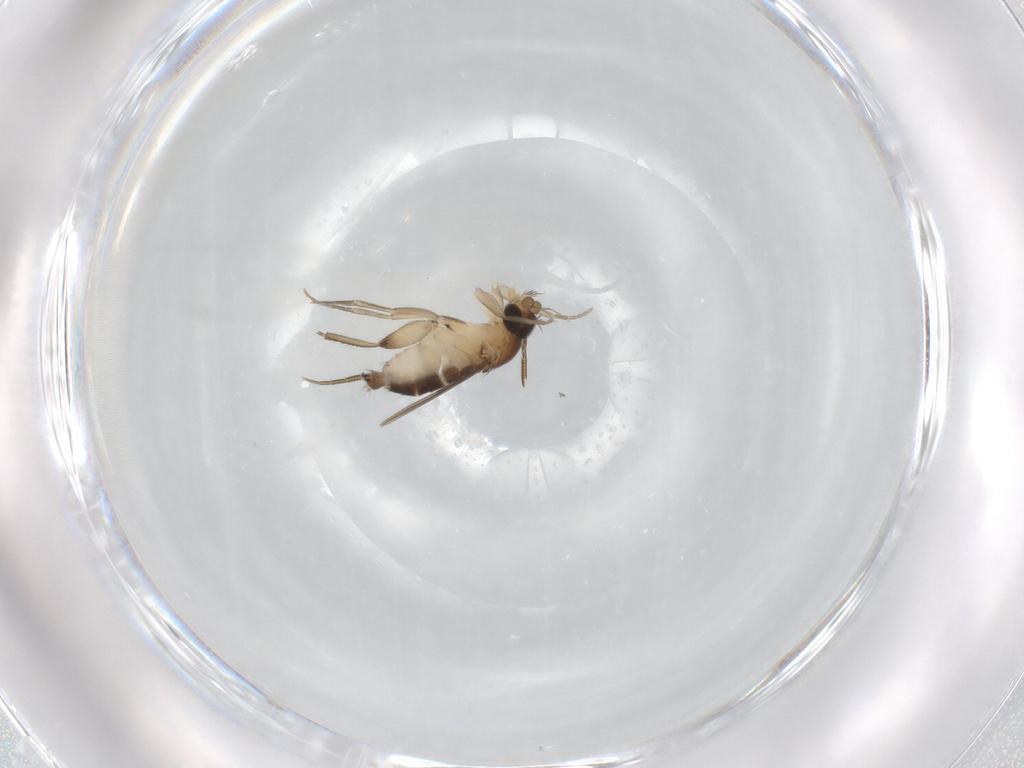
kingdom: Animalia
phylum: Arthropoda
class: Insecta
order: Diptera
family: Phoridae
